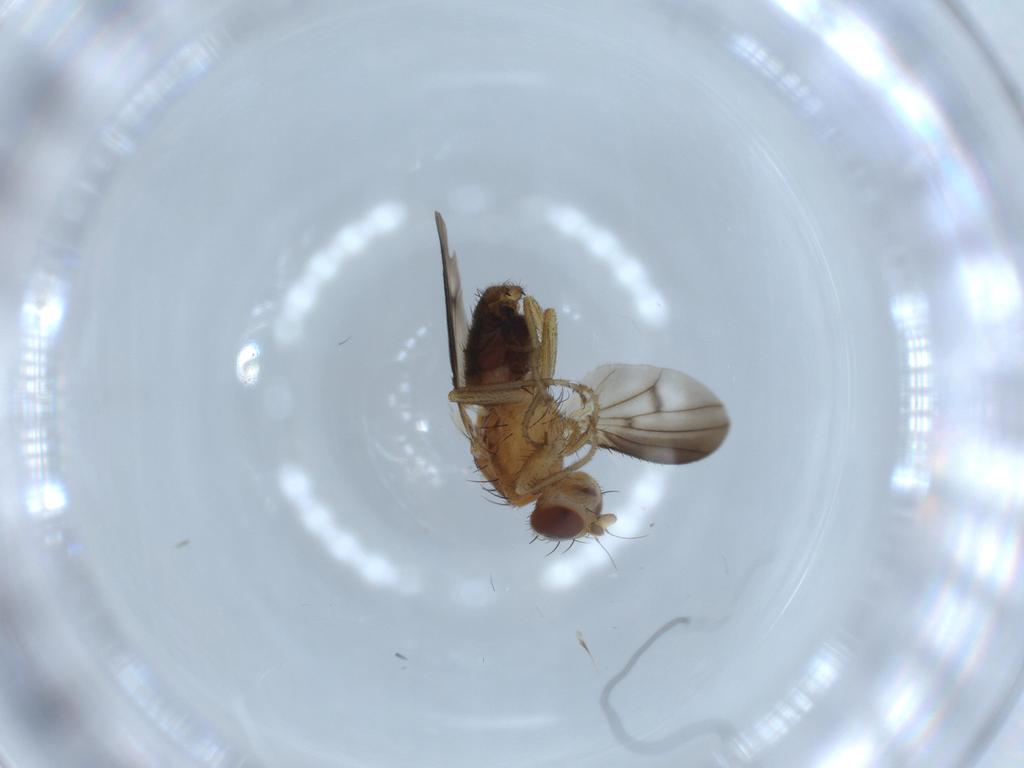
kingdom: Animalia
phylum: Arthropoda
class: Insecta
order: Diptera
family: Heleomyzidae
